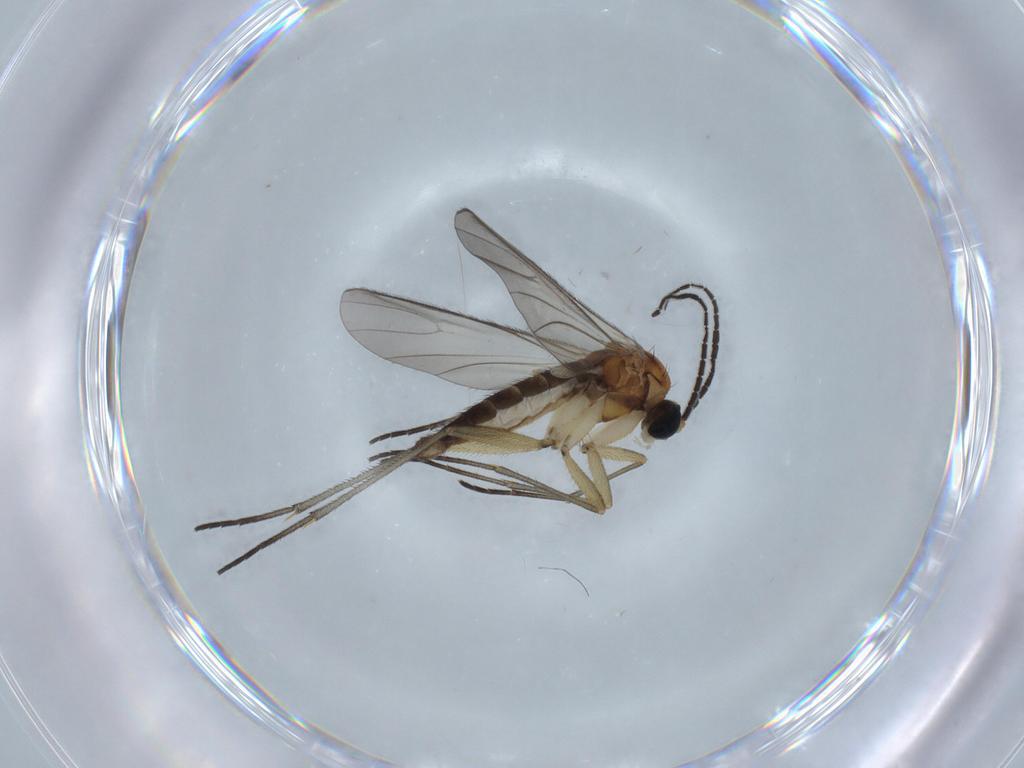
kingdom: Animalia
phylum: Arthropoda
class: Insecta
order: Diptera
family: Sciaridae
